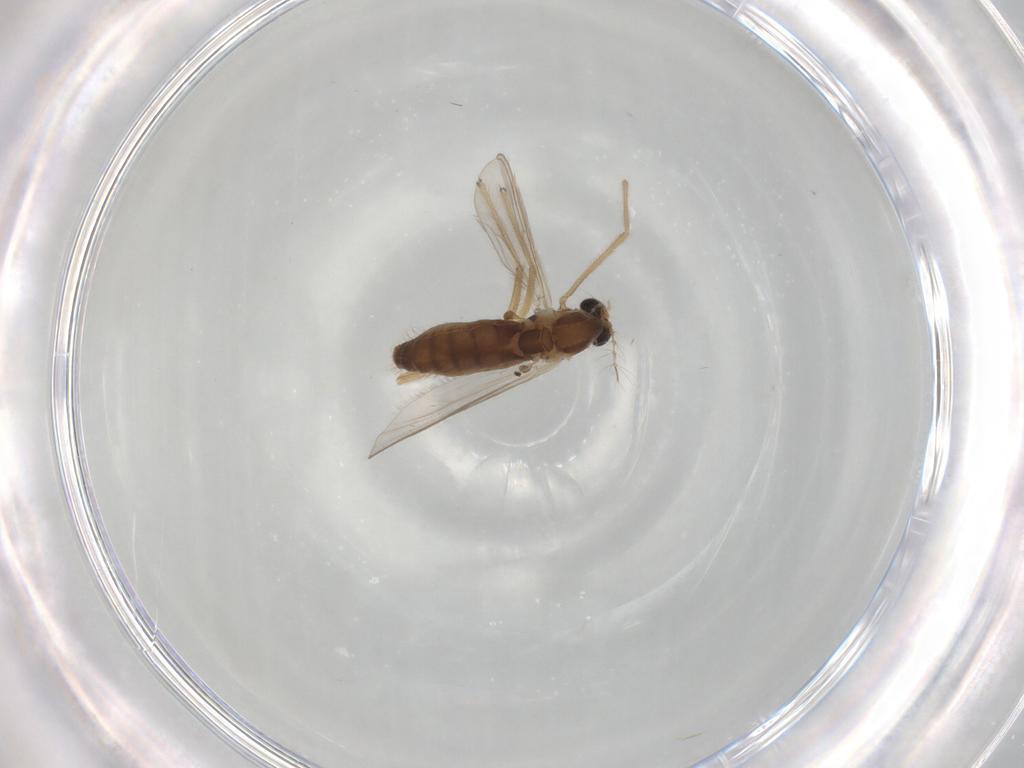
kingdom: Animalia
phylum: Arthropoda
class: Insecta
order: Diptera
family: Chironomidae
